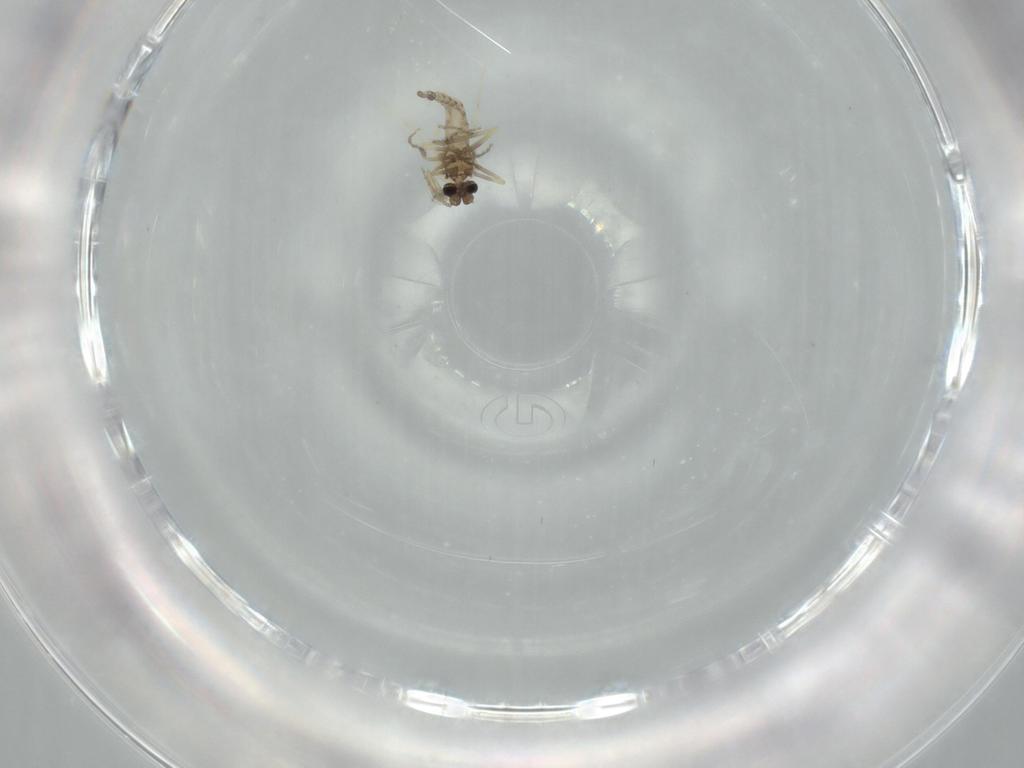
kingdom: Animalia
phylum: Arthropoda
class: Insecta
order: Diptera
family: Ceratopogonidae
